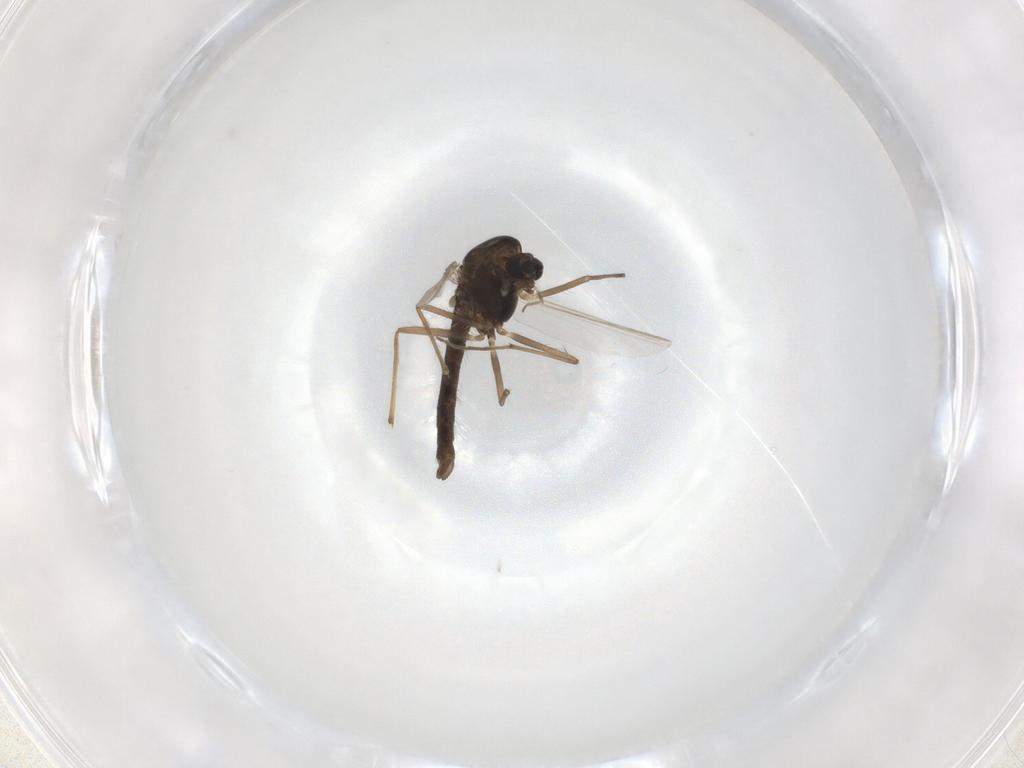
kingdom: Animalia
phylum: Arthropoda
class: Insecta
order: Diptera
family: Chironomidae
